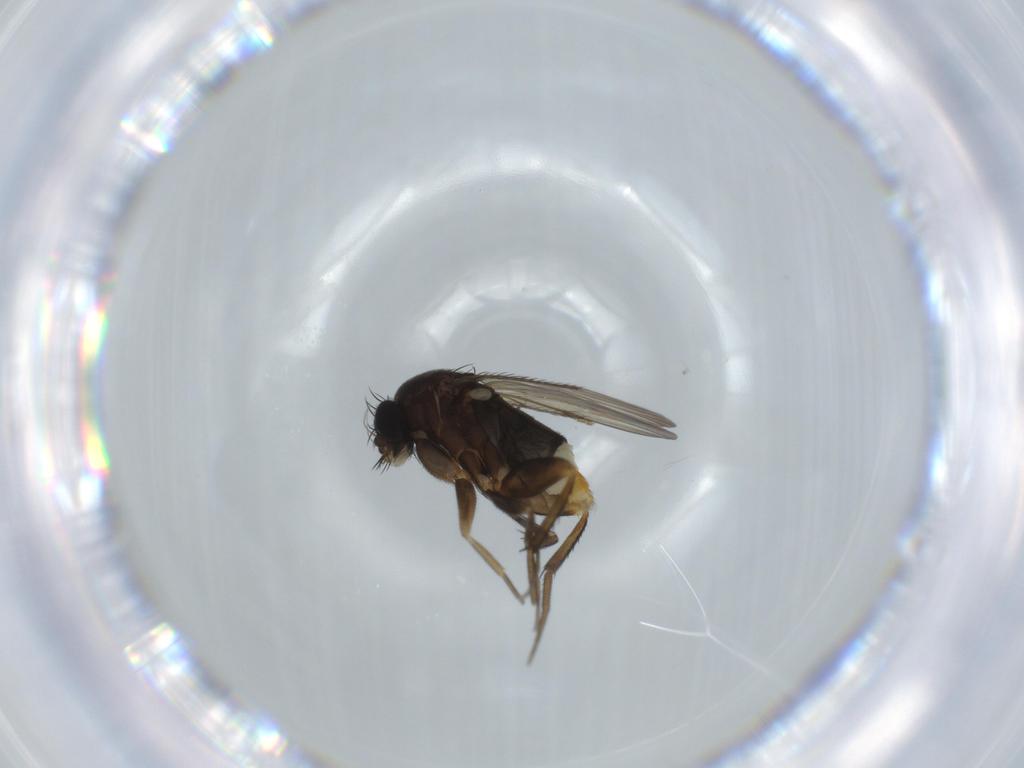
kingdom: Animalia
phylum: Arthropoda
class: Insecta
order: Diptera
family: Phoridae
